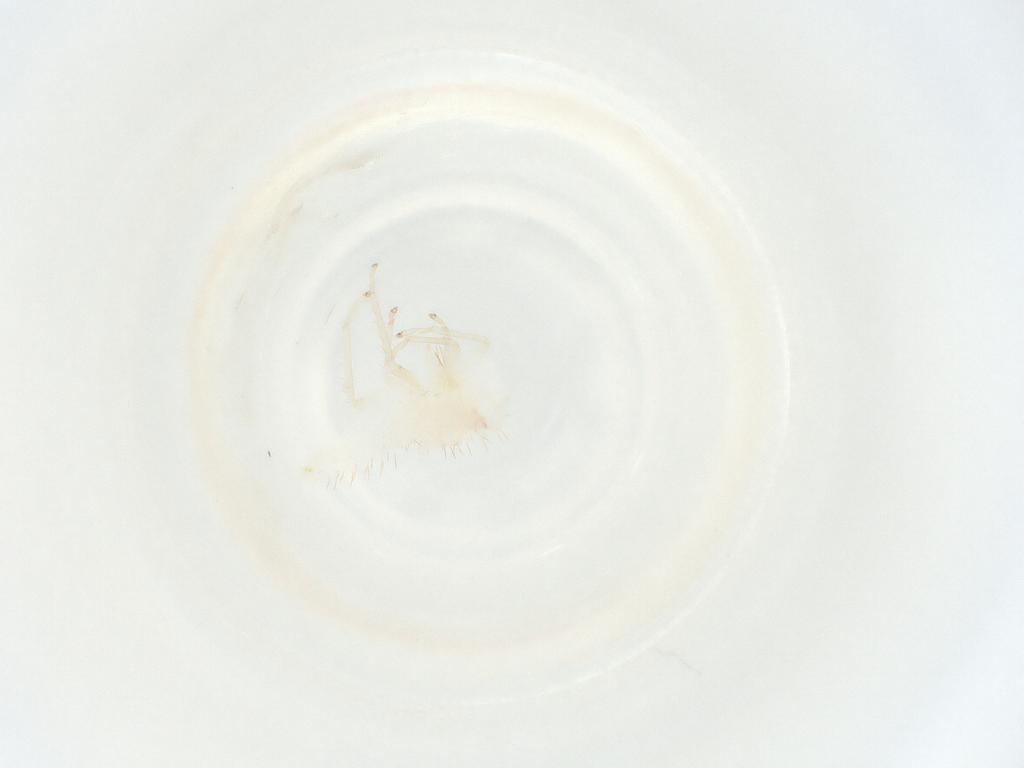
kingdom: Animalia
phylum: Arthropoda
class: Insecta
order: Hemiptera
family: Cicadellidae
